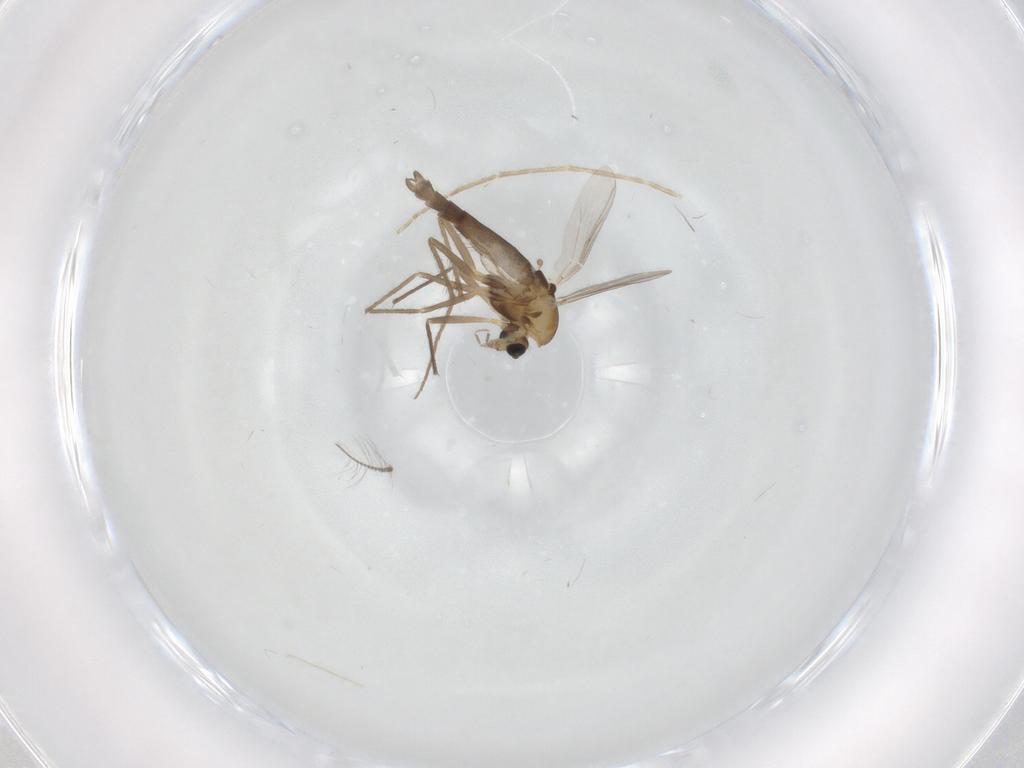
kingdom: Animalia
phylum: Arthropoda
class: Insecta
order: Diptera
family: Chironomidae
